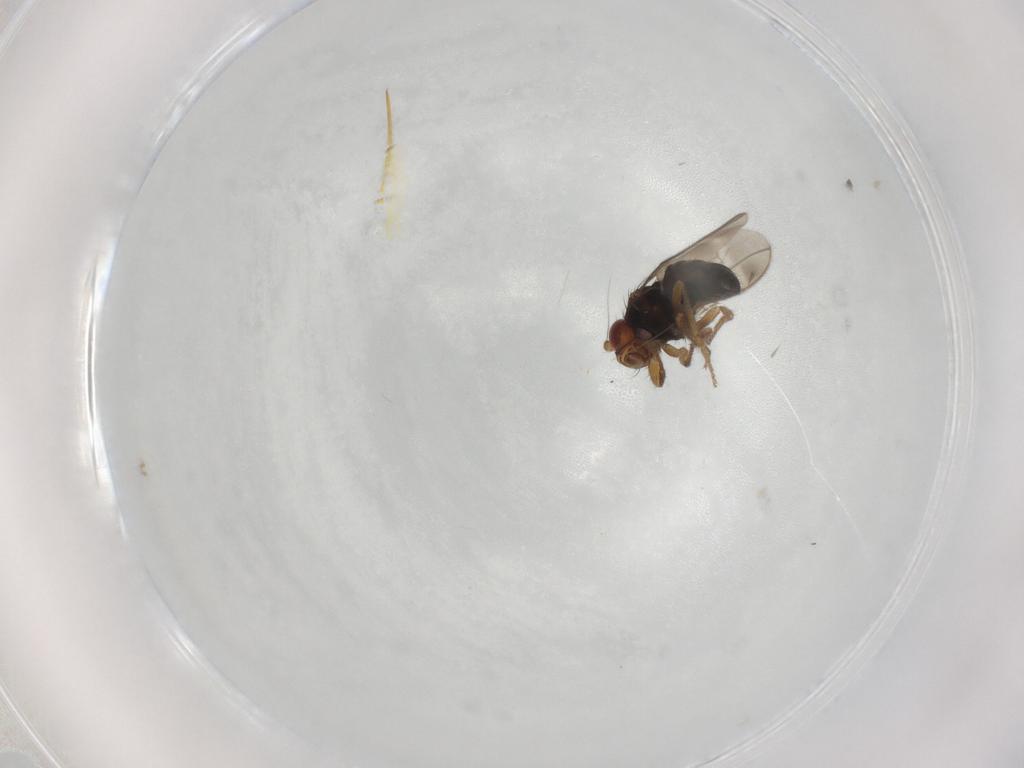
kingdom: Animalia
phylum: Arthropoda
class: Insecta
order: Diptera
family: Sphaeroceridae
